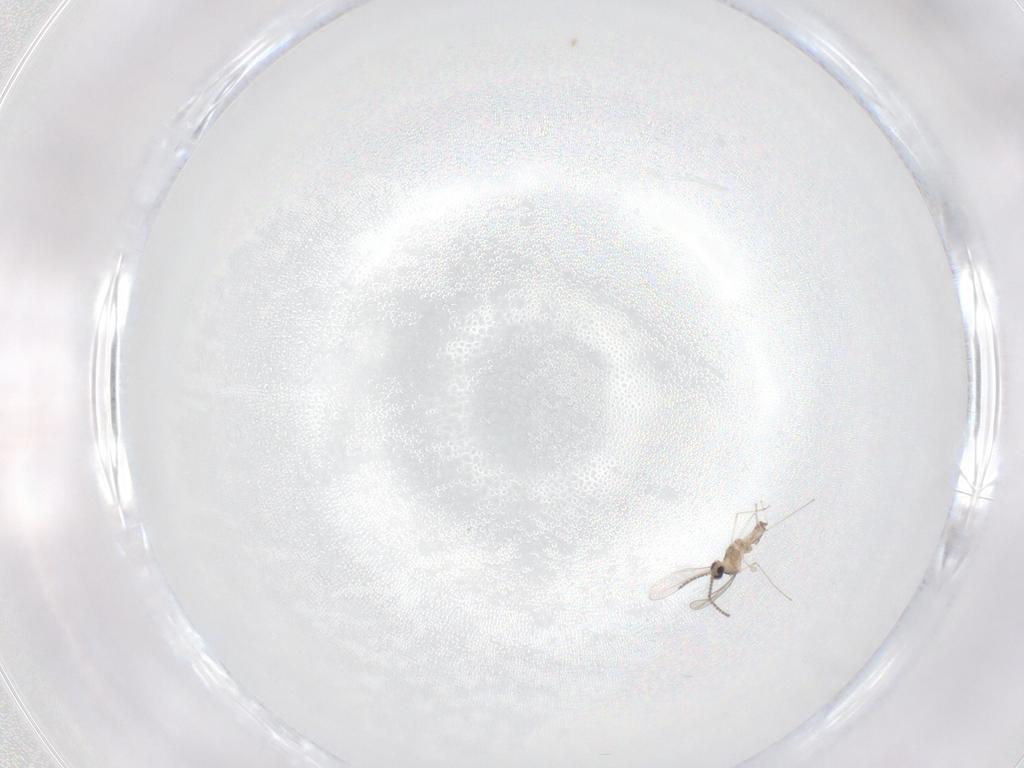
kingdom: Animalia
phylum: Arthropoda
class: Insecta
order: Diptera
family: Cecidomyiidae
